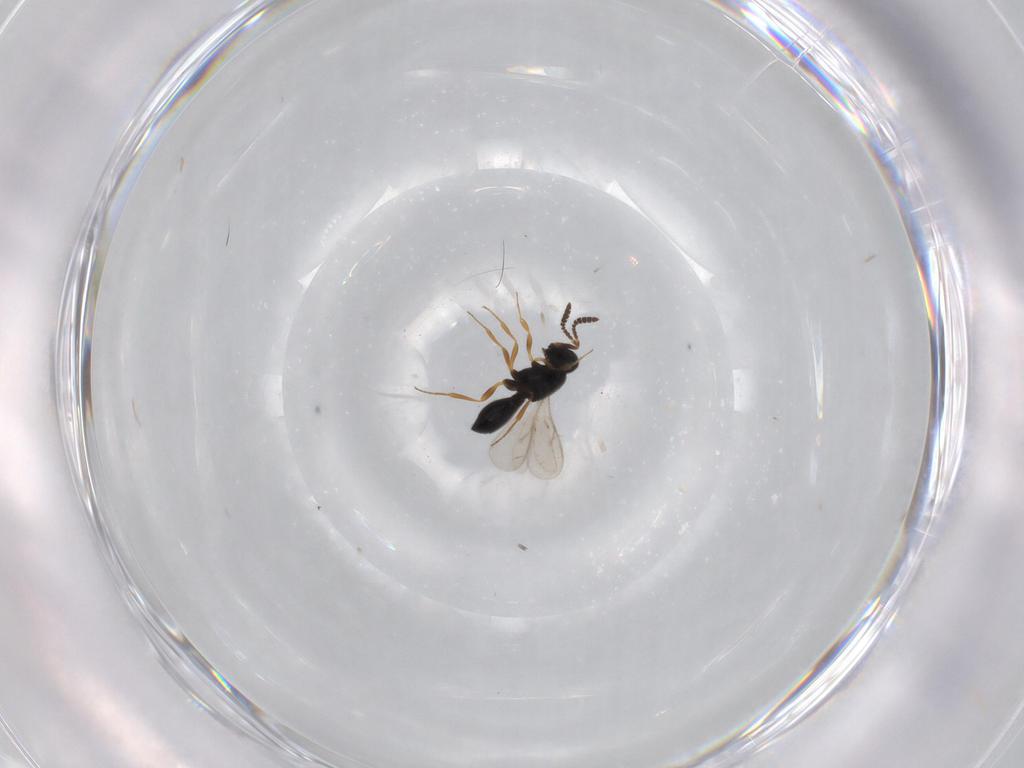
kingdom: Animalia
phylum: Arthropoda
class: Insecta
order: Hymenoptera
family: Scelionidae
